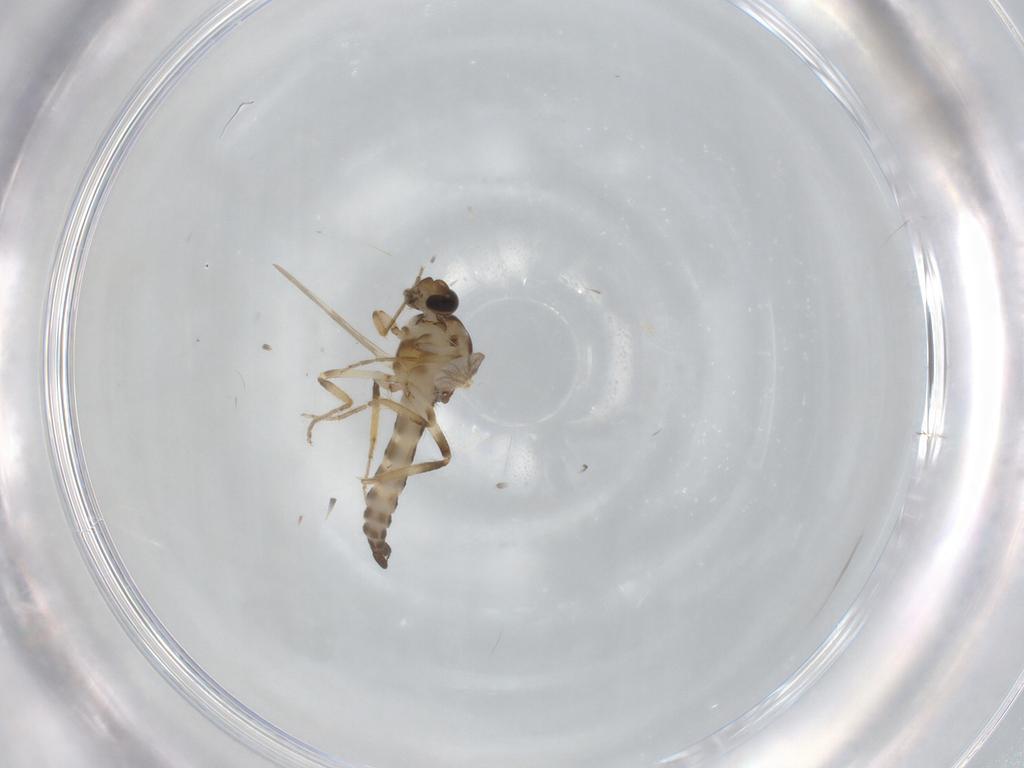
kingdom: Animalia
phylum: Arthropoda
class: Insecta
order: Diptera
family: Ceratopogonidae
